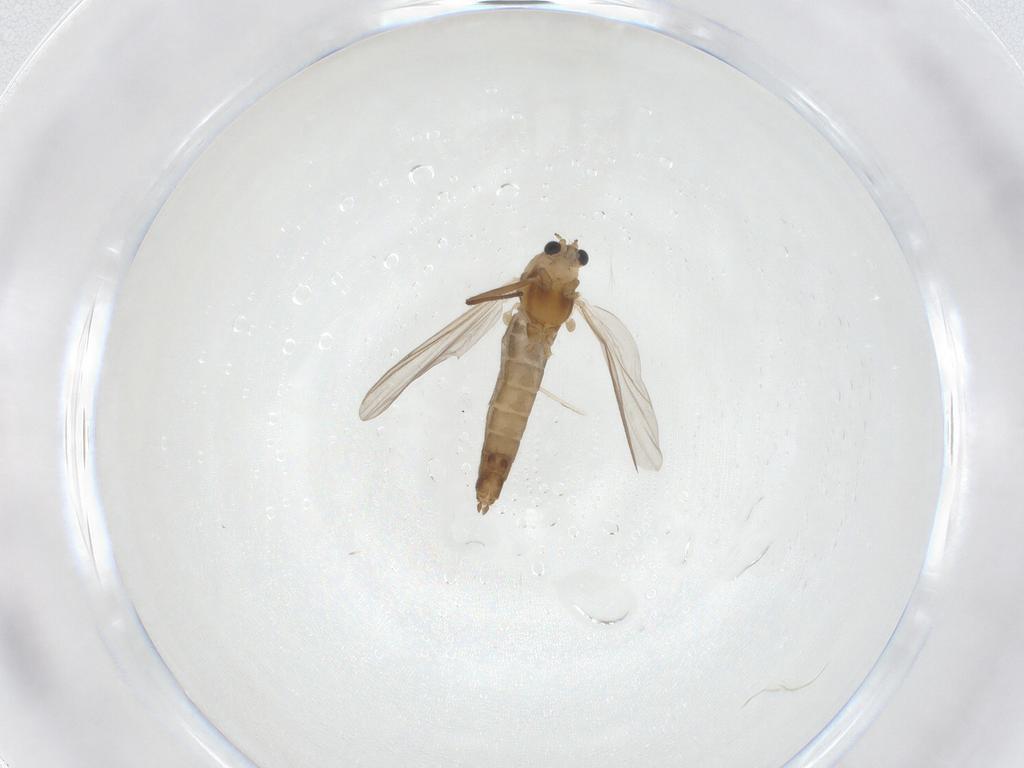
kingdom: Animalia
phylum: Arthropoda
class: Insecta
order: Diptera
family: Chironomidae
